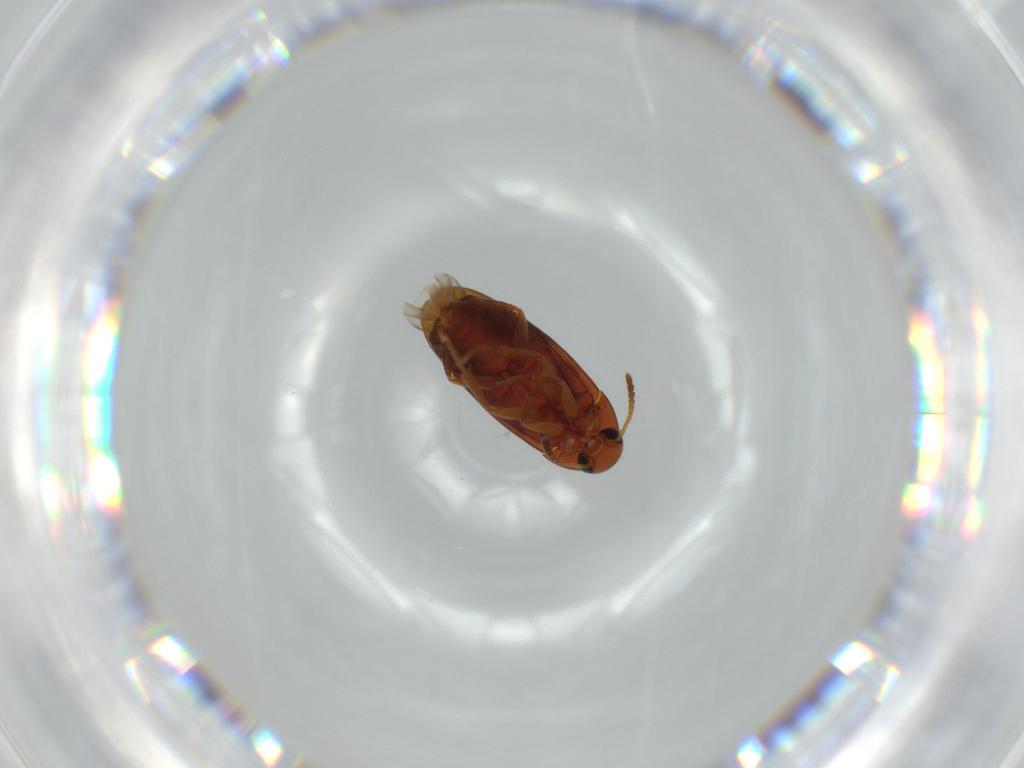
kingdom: Animalia
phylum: Arthropoda
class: Insecta
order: Coleoptera
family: Scraptiidae
